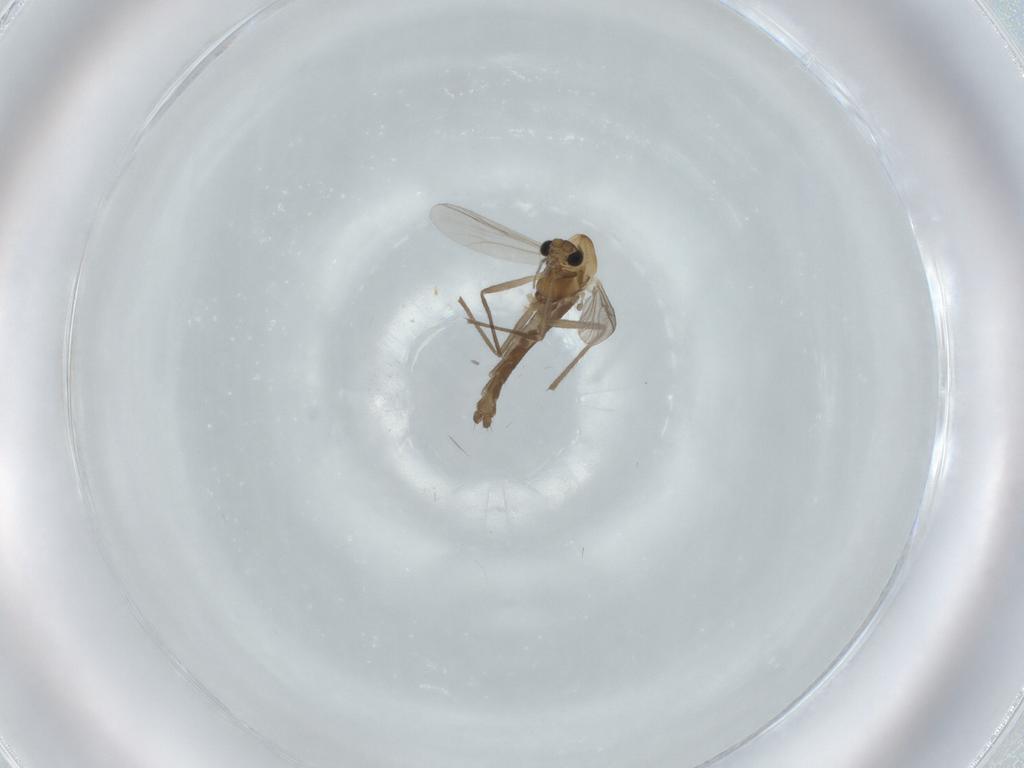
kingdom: Animalia
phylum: Arthropoda
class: Insecta
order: Diptera
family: Chironomidae
